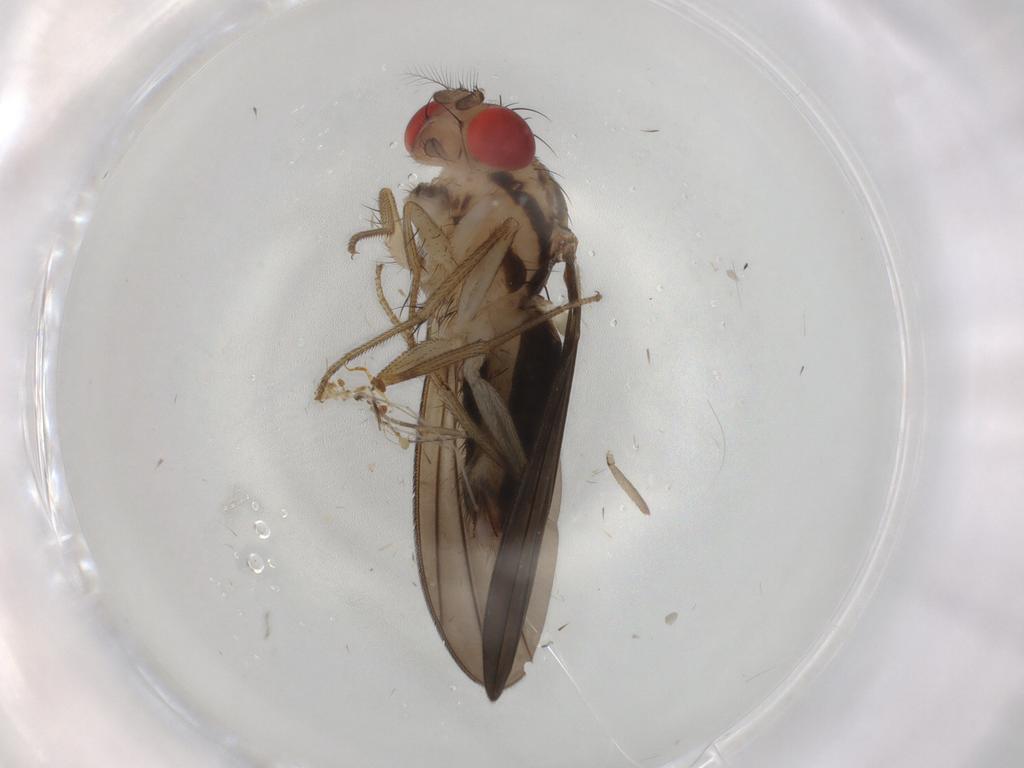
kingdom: Animalia
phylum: Arthropoda
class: Insecta
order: Diptera
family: Drosophilidae
